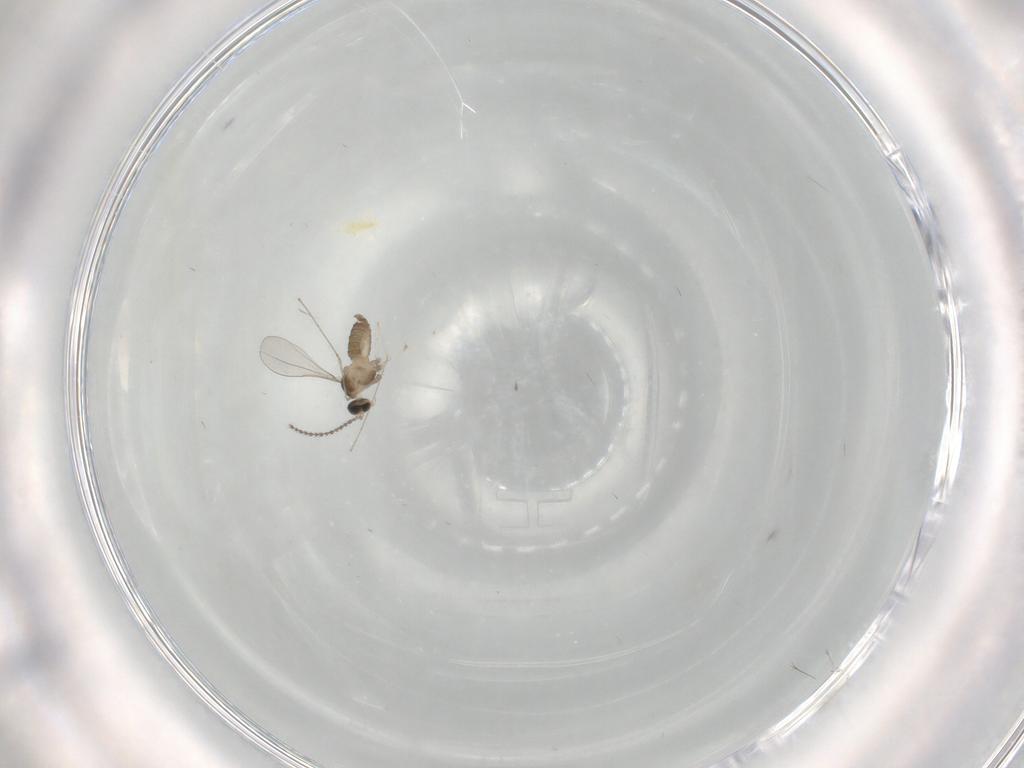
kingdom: Animalia
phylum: Arthropoda
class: Insecta
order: Diptera
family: Cecidomyiidae
